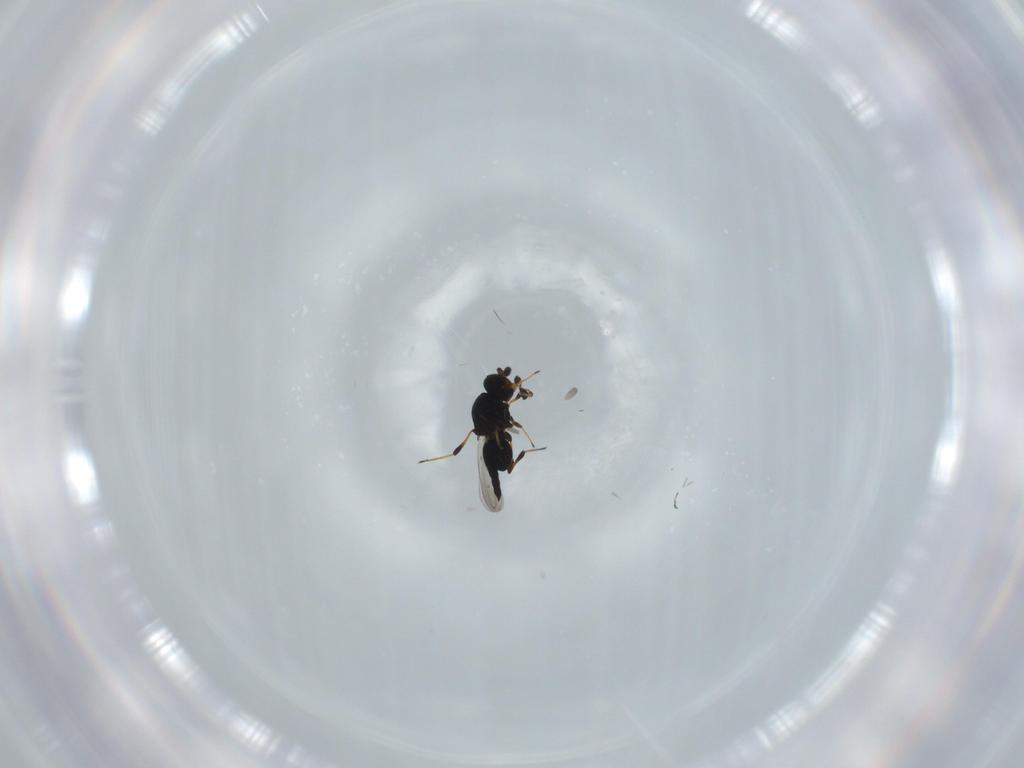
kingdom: Animalia
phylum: Arthropoda
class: Insecta
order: Hymenoptera
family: Platygastridae
